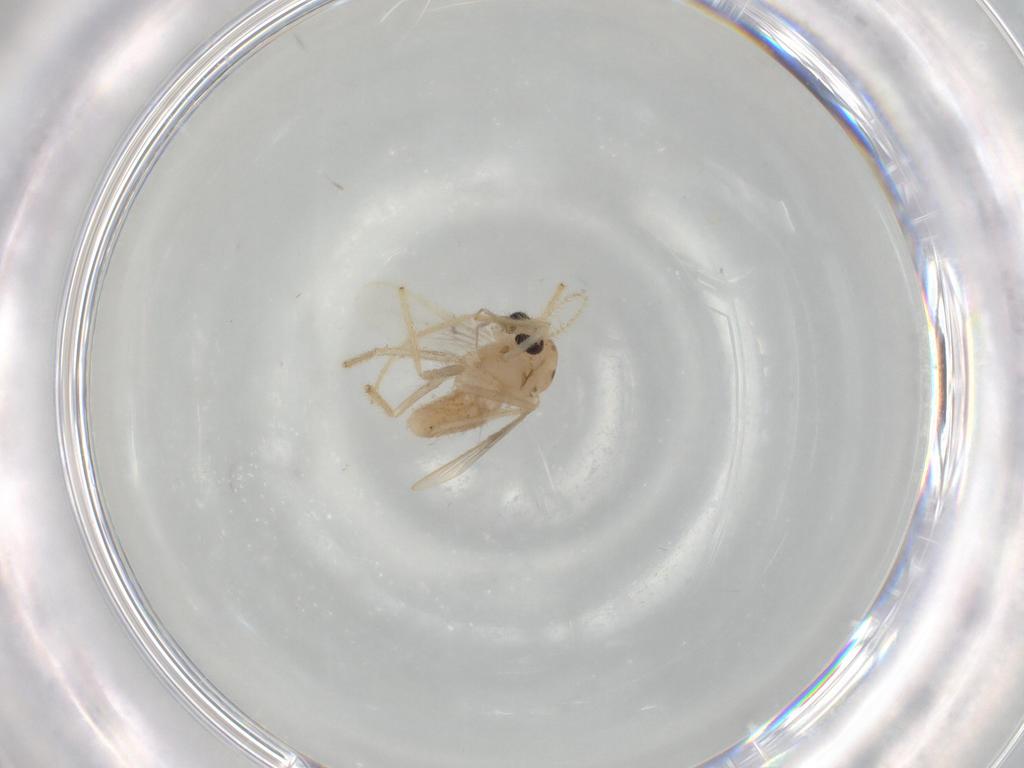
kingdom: Animalia
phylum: Arthropoda
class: Insecta
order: Diptera
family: Chironomidae
